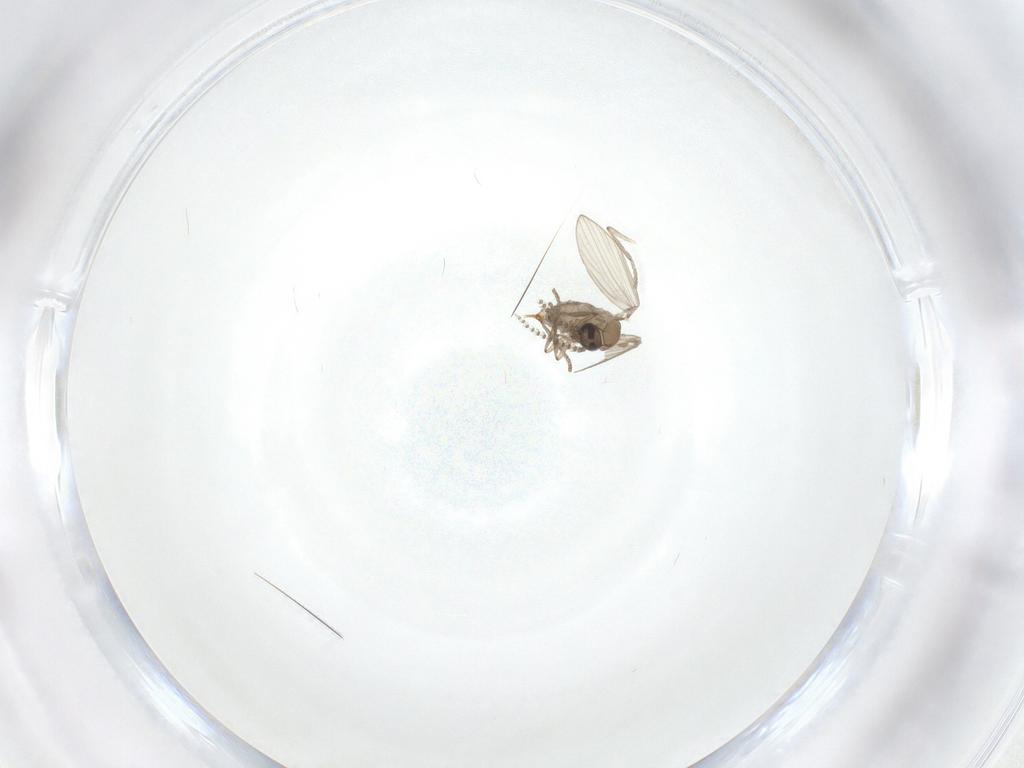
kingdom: Animalia
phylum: Arthropoda
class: Insecta
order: Diptera
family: Psychodidae
